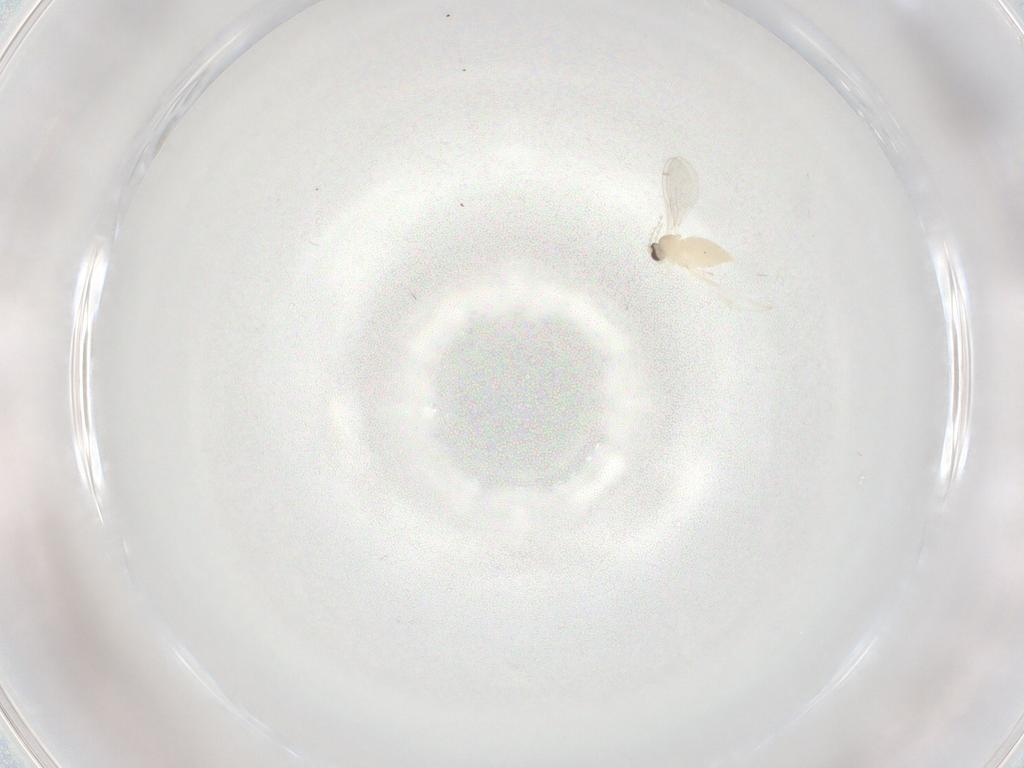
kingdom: Animalia
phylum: Arthropoda
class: Insecta
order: Diptera
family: Cecidomyiidae
